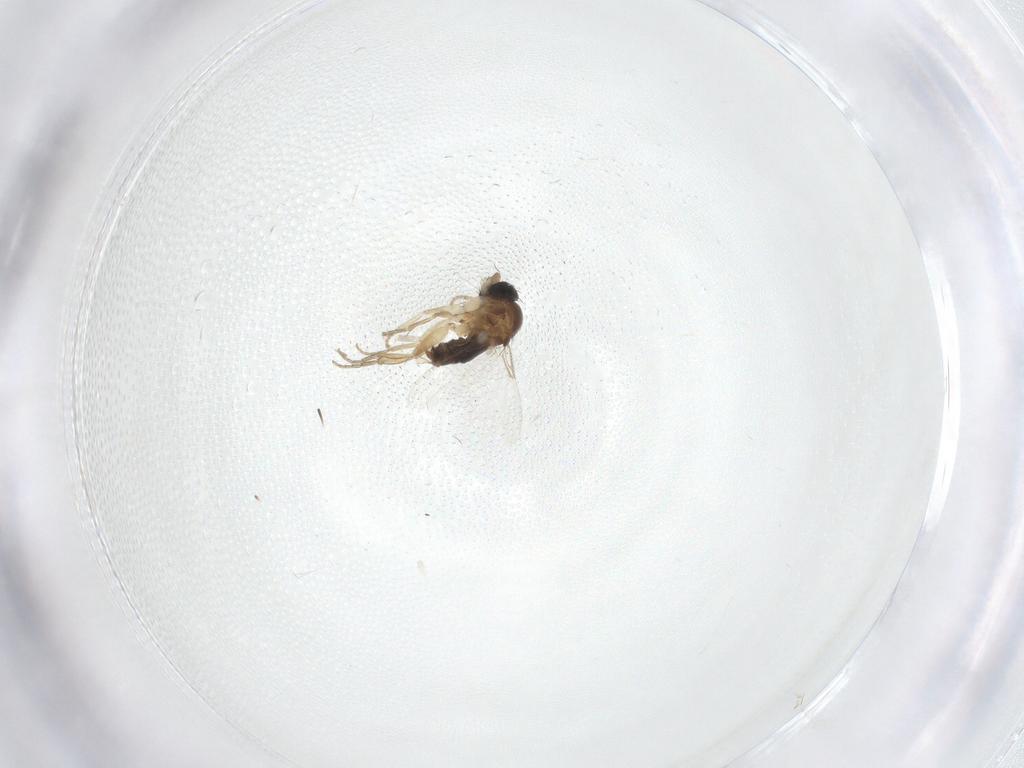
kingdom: Animalia
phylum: Arthropoda
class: Insecta
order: Diptera
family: Phoridae
